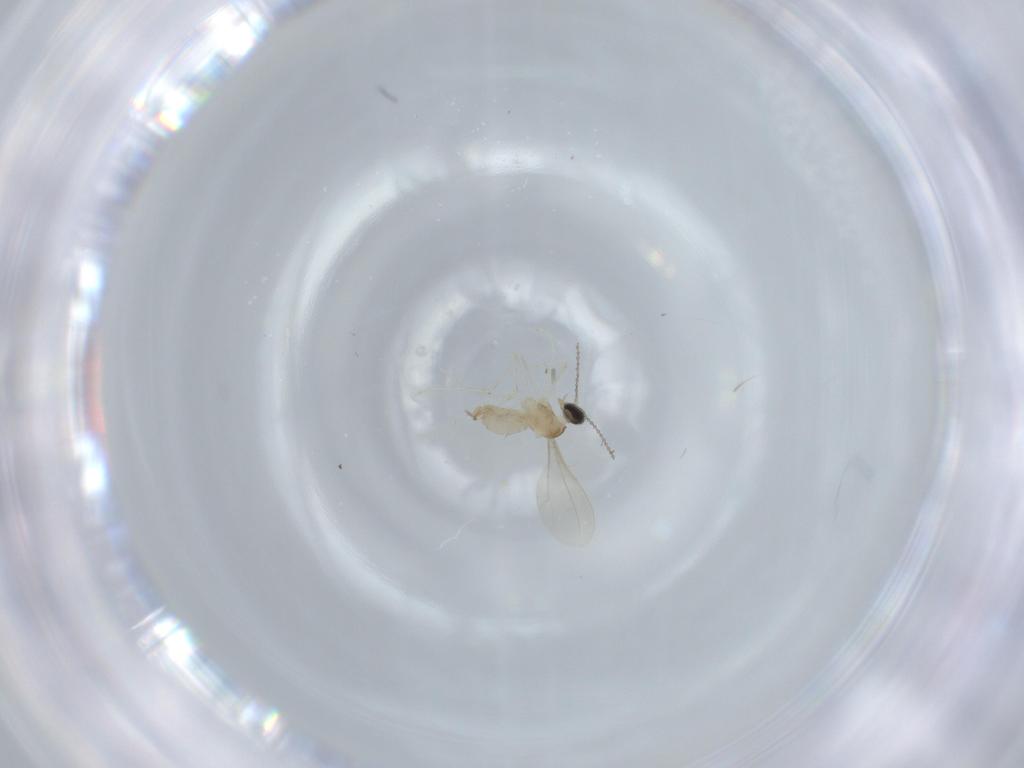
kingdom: Animalia
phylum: Arthropoda
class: Insecta
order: Diptera
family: Cecidomyiidae
